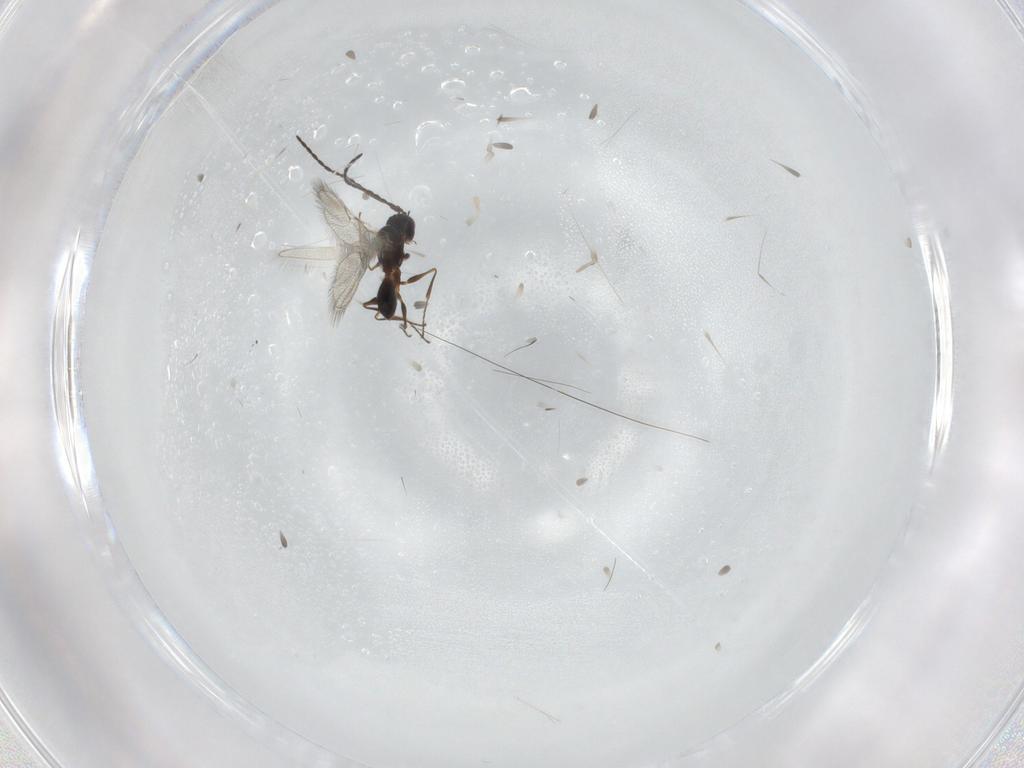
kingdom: Animalia
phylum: Arthropoda
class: Insecta
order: Hymenoptera
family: Figitidae
